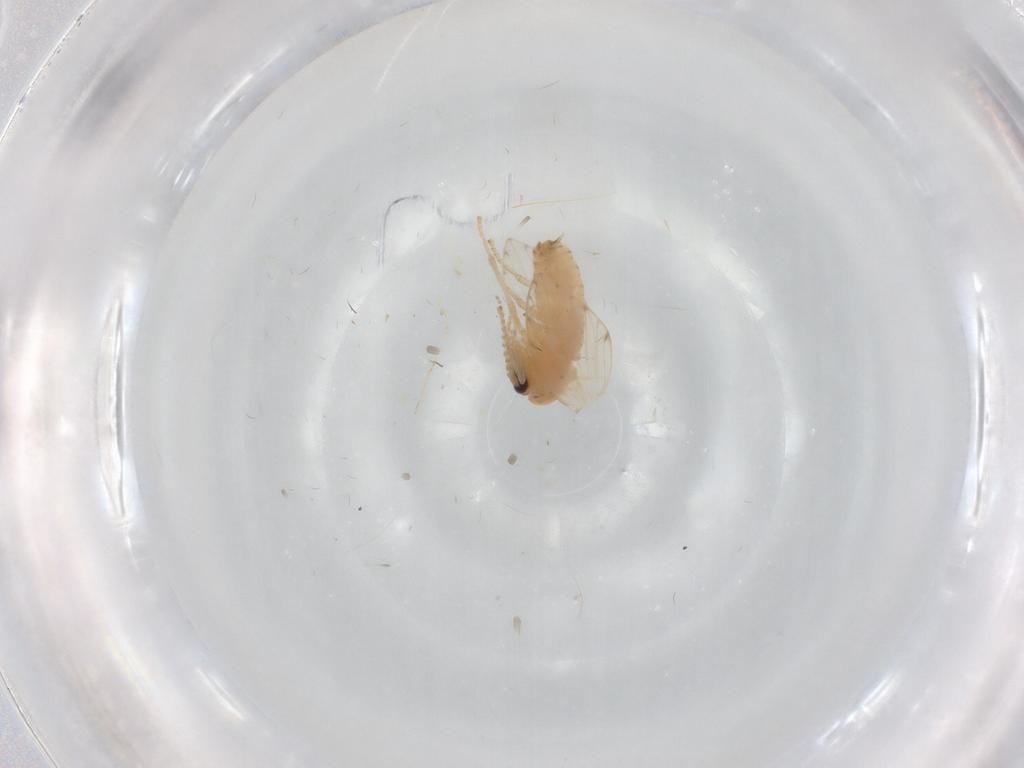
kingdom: Animalia
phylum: Arthropoda
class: Insecta
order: Diptera
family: Psychodidae
